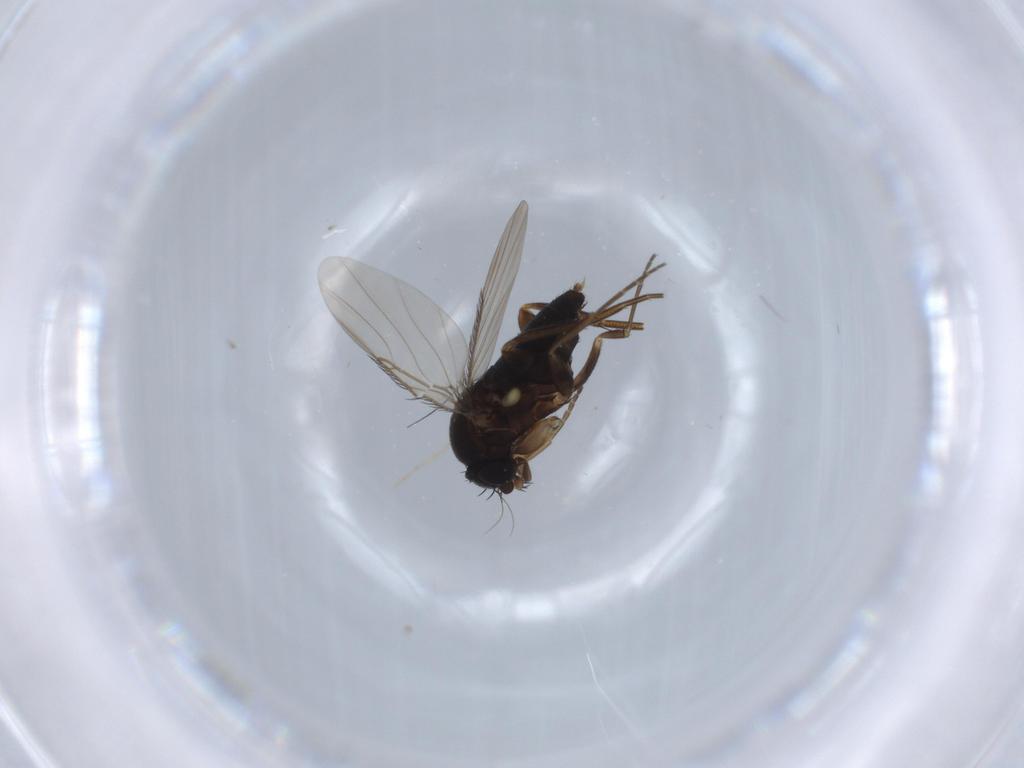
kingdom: Animalia
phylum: Arthropoda
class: Insecta
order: Diptera
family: Phoridae
